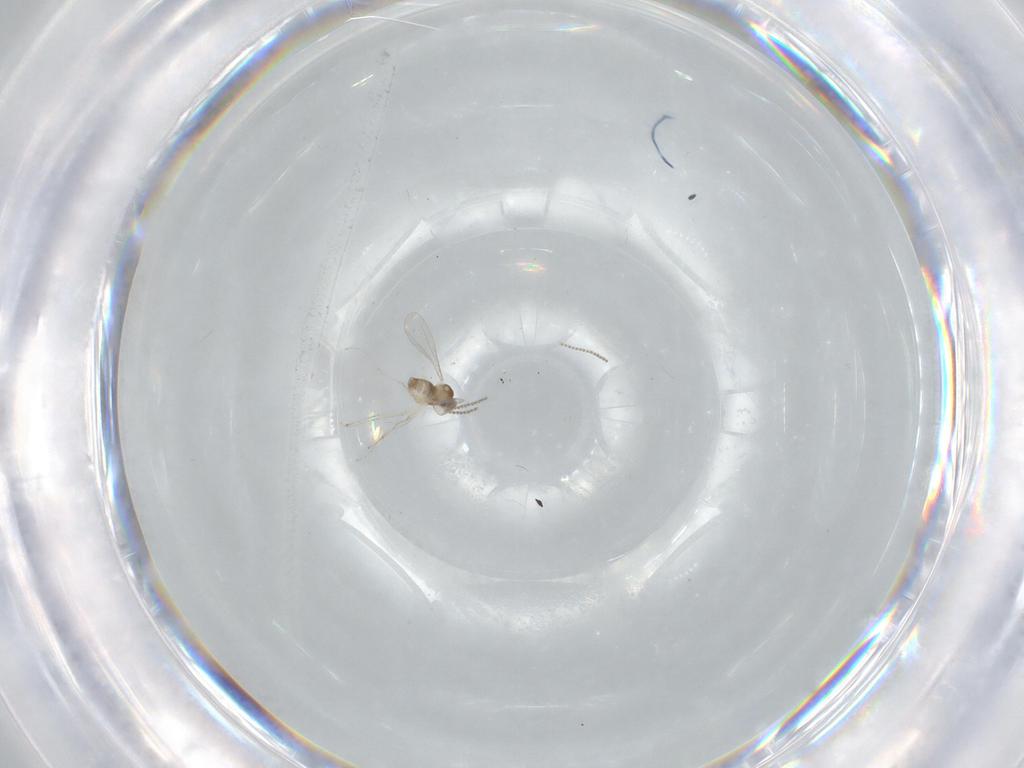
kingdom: Animalia
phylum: Arthropoda
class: Insecta
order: Diptera
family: Cecidomyiidae
